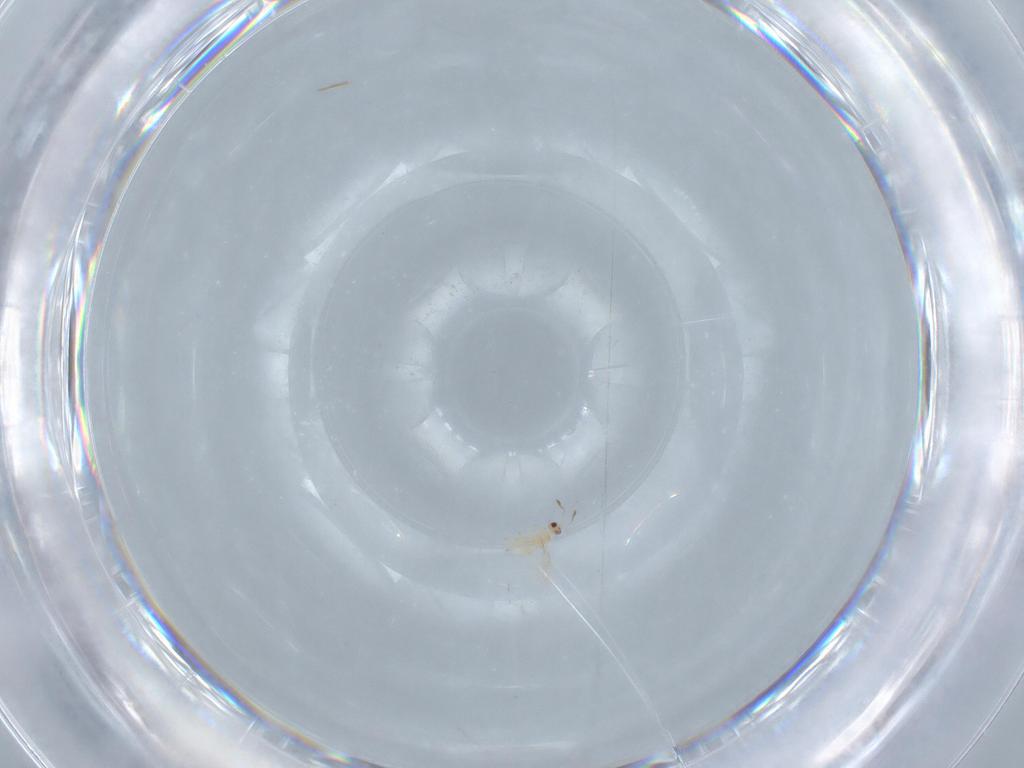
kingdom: Animalia
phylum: Arthropoda
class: Insecta
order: Hymenoptera
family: Mymaridae
